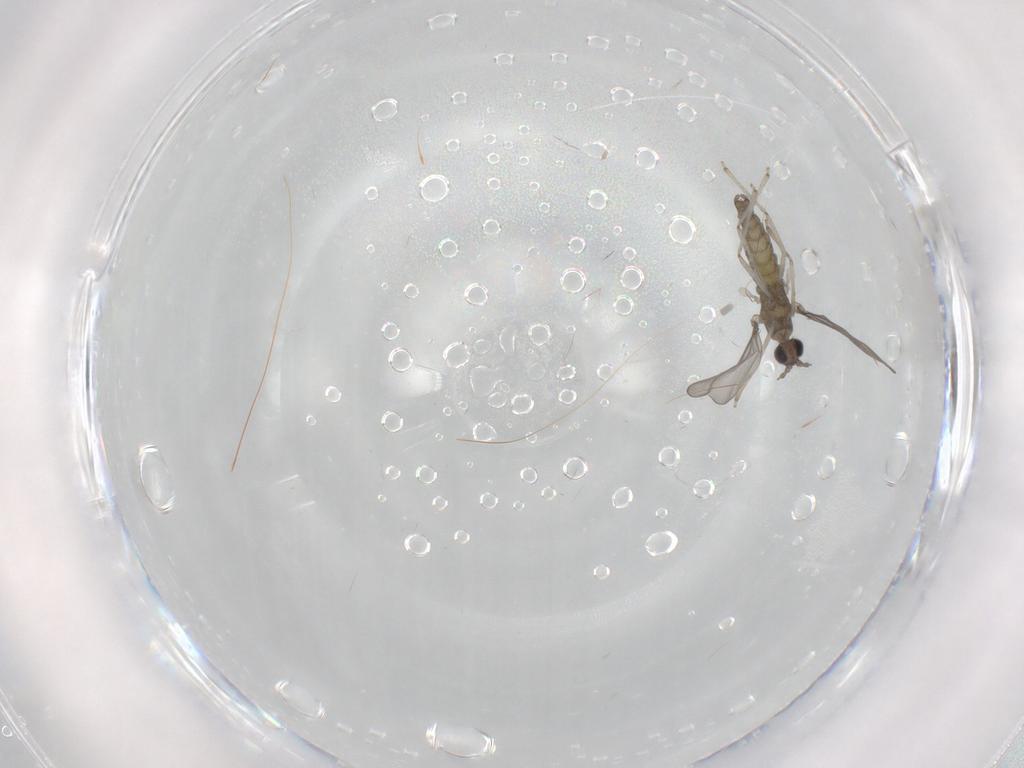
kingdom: Animalia
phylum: Arthropoda
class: Insecta
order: Diptera
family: Cecidomyiidae
